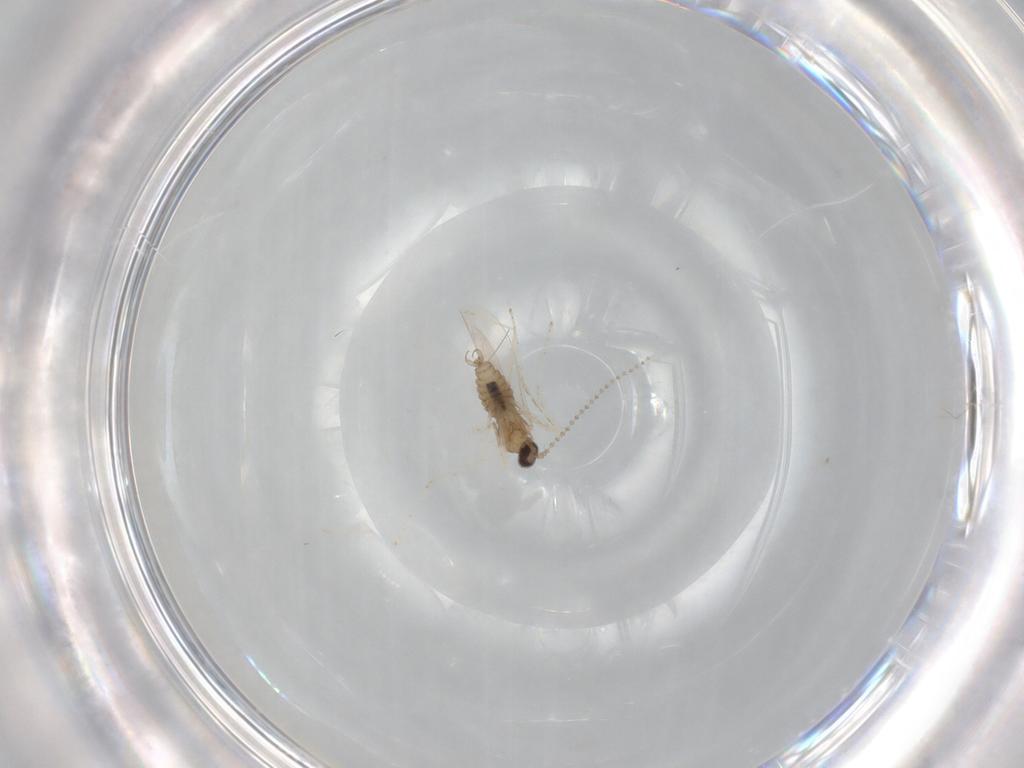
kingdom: Animalia
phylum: Arthropoda
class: Insecta
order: Diptera
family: Cecidomyiidae
